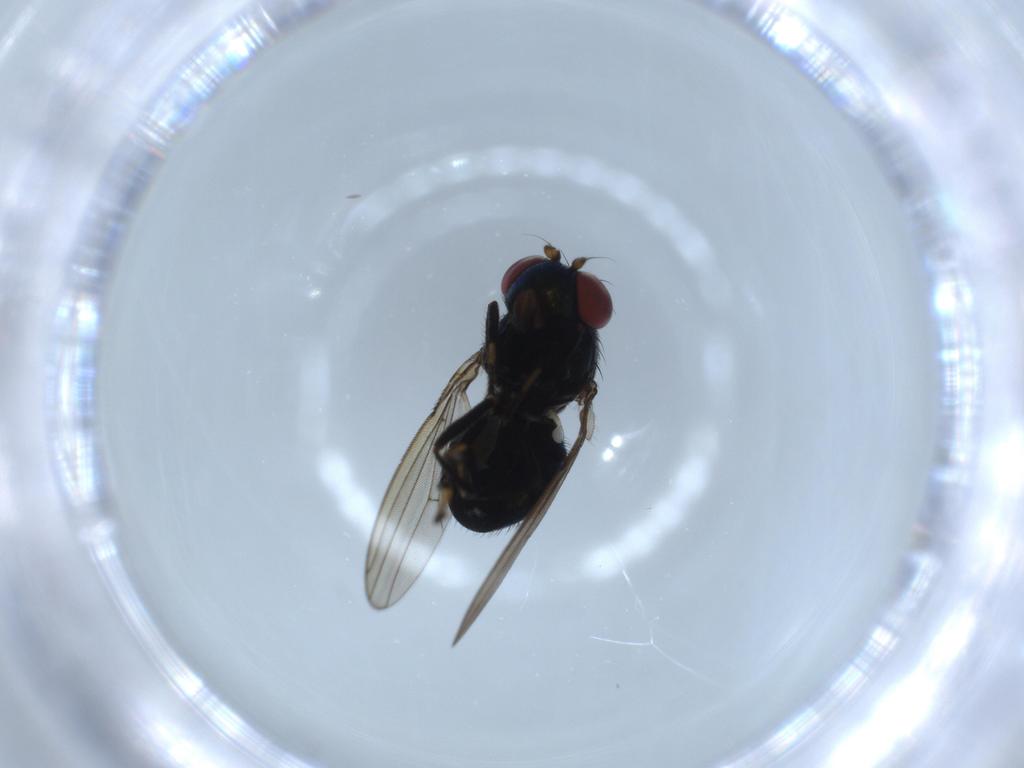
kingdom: Animalia
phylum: Arthropoda
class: Insecta
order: Diptera
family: Ephydridae
